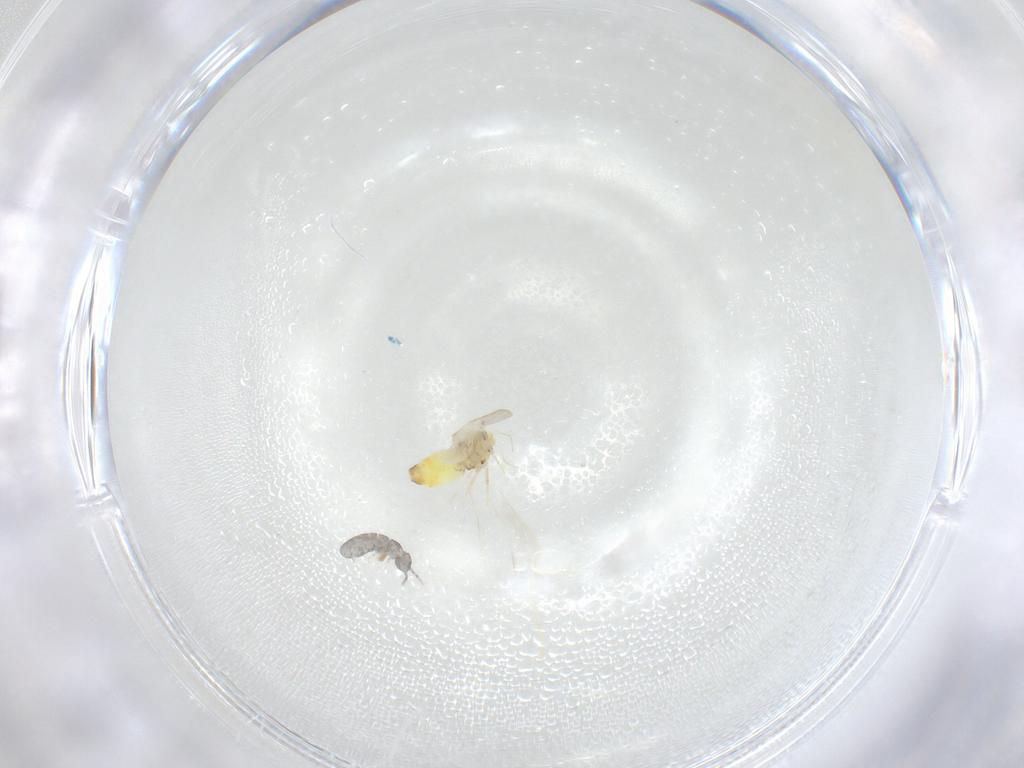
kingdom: Animalia
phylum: Arthropoda
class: Insecta
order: Hemiptera
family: Aleyrodidae
